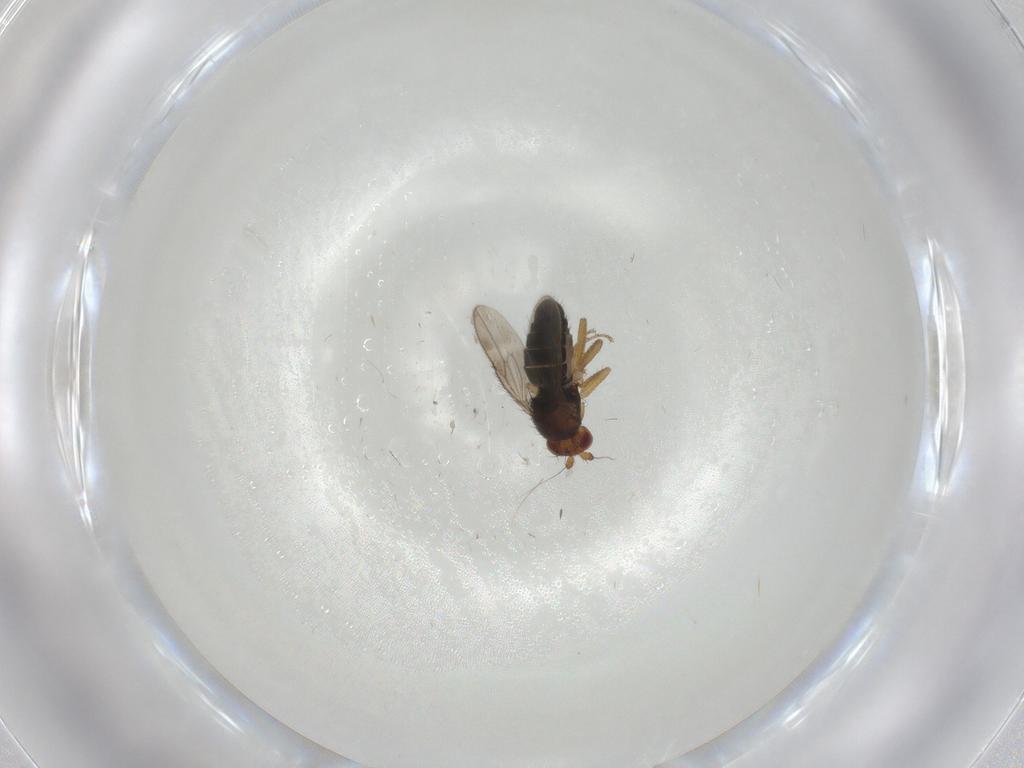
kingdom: Animalia
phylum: Arthropoda
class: Insecta
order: Diptera
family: Sphaeroceridae
